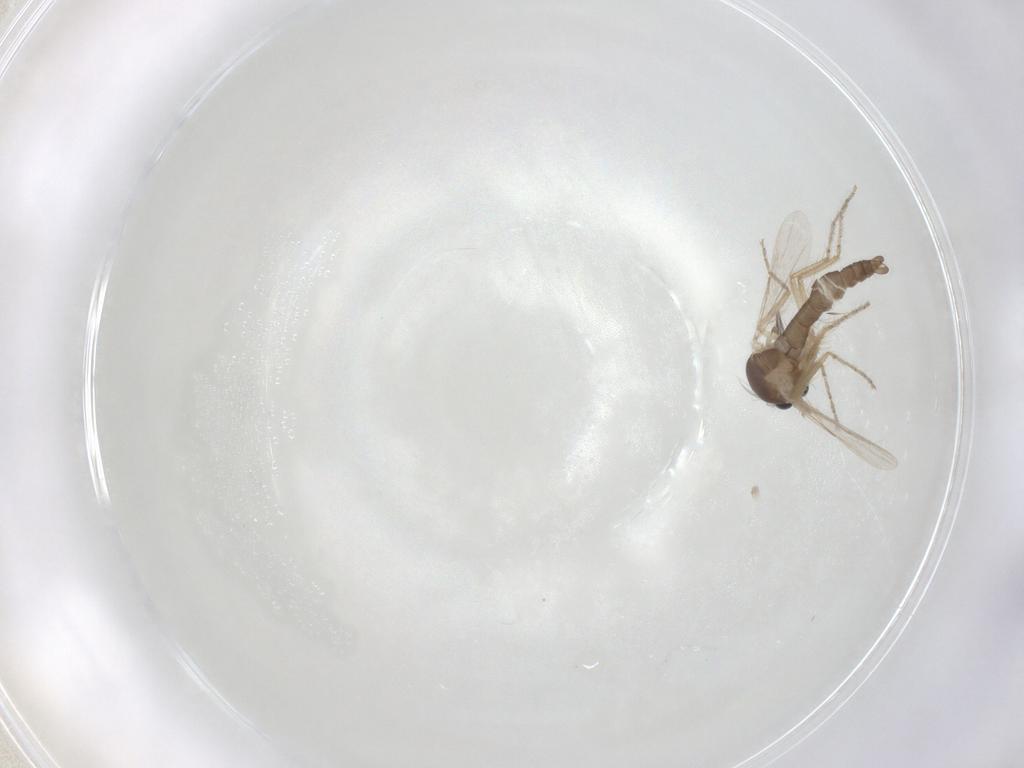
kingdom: Animalia
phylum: Arthropoda
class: Insecta
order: Diptera
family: Ceratopogonidae
